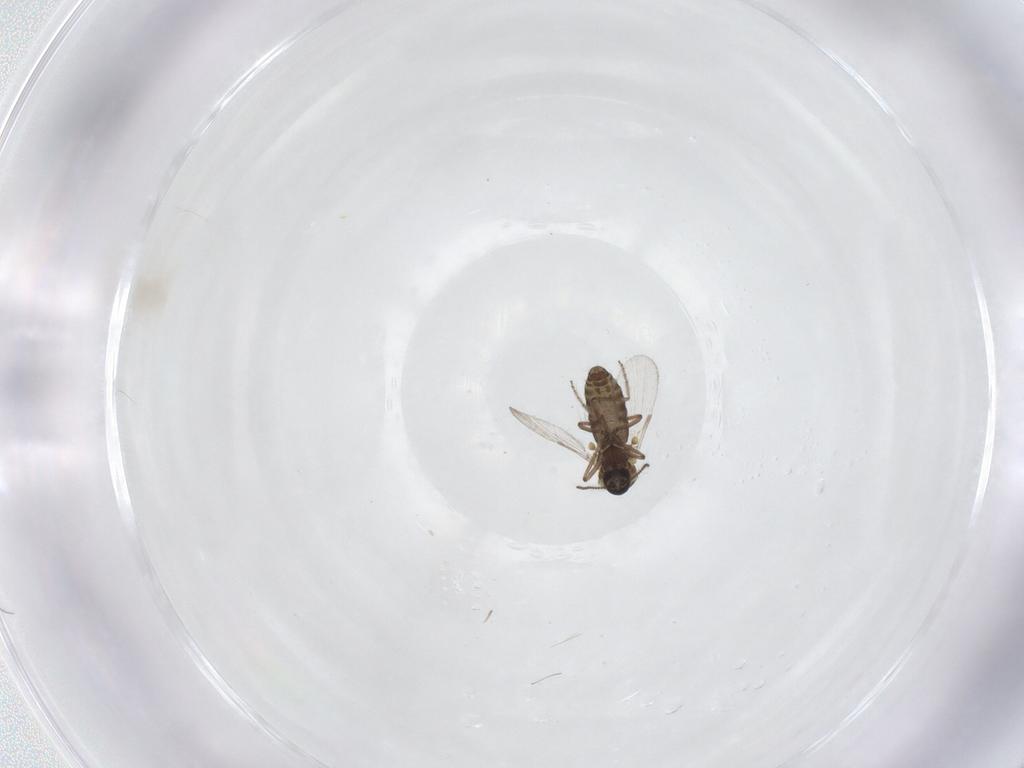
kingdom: Animalia
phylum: Arthropoda
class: Insecta
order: Diptera
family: Ceratopogonidae
